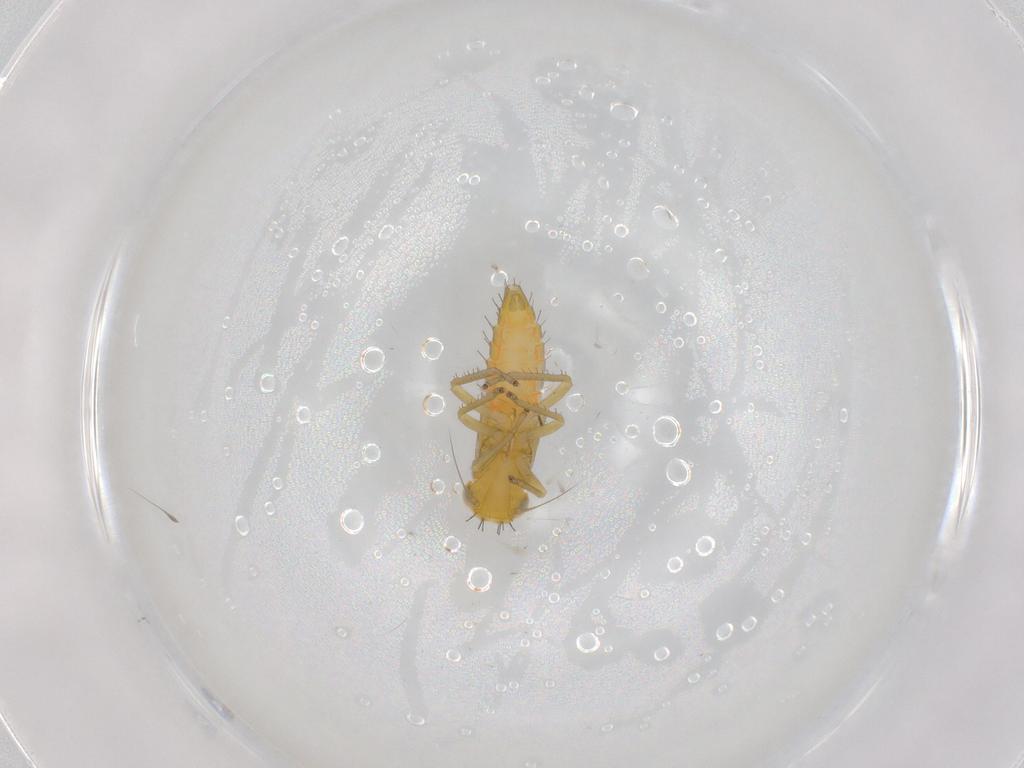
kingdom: Animalia
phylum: Arthropoda
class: Insecta
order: Hemiptera
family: Cicadellidae
